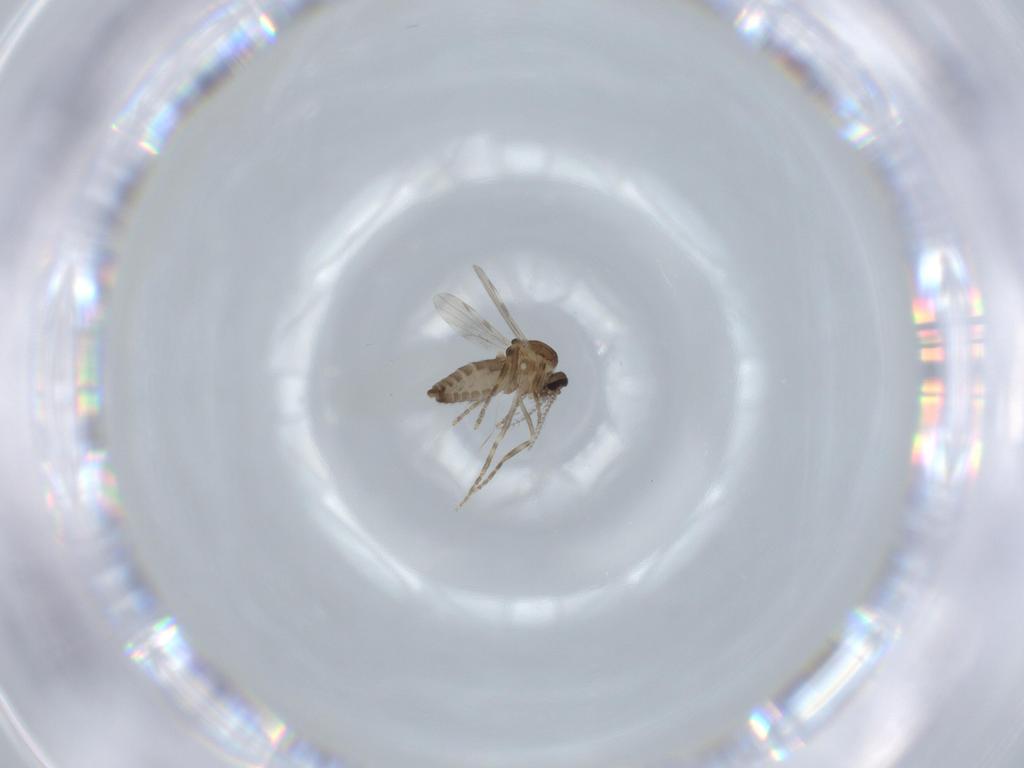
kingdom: Animalia
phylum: Arthropoda
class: Insecta
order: Diptera
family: Ceratopogonidae
